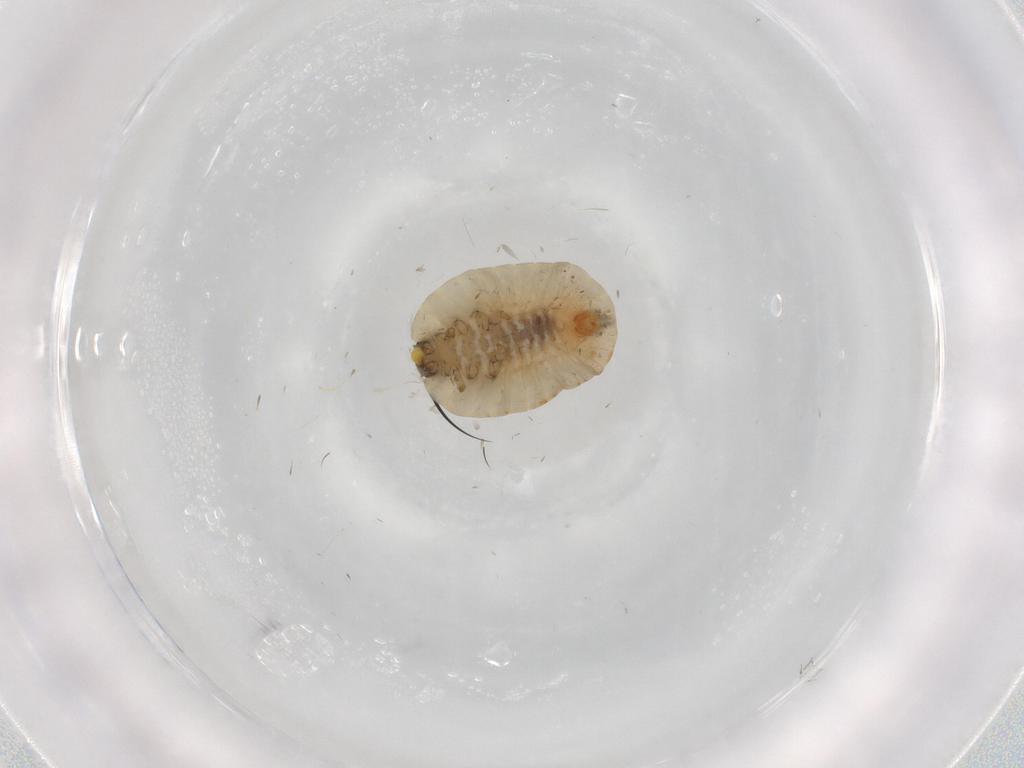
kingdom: Animalia
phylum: Arthropoda
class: Insecta
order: Coleoptera
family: Coccinellidae
